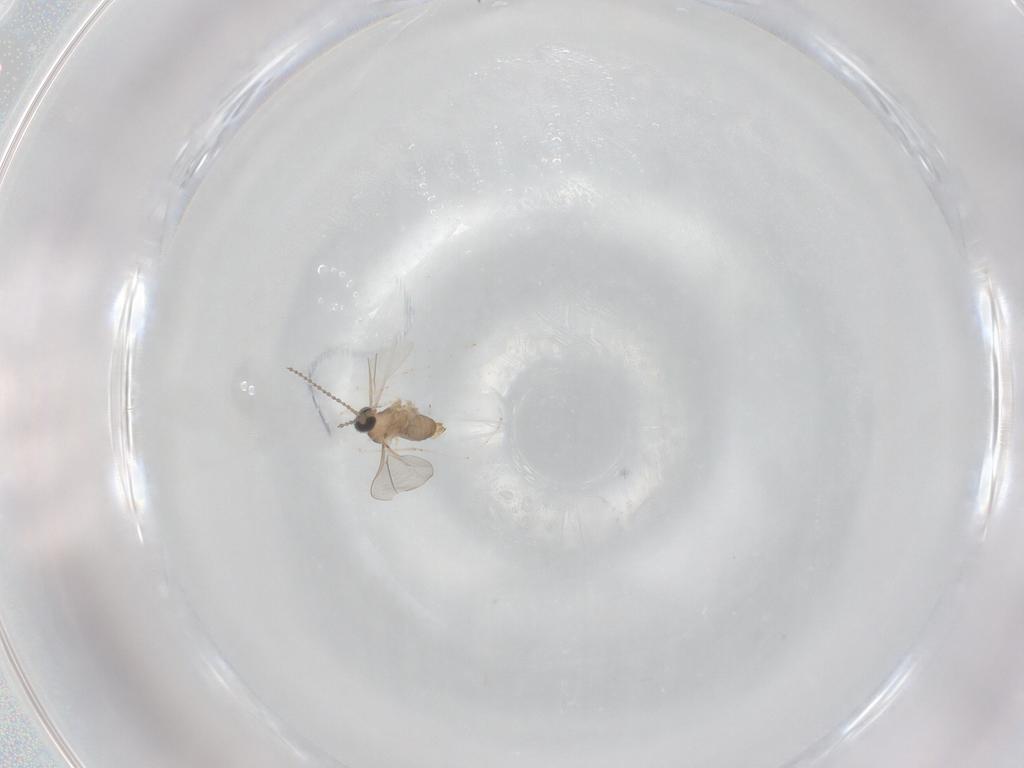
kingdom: Animalia
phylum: Arthropoda
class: Insecta
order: Diptera
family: Cecidomyiidae
